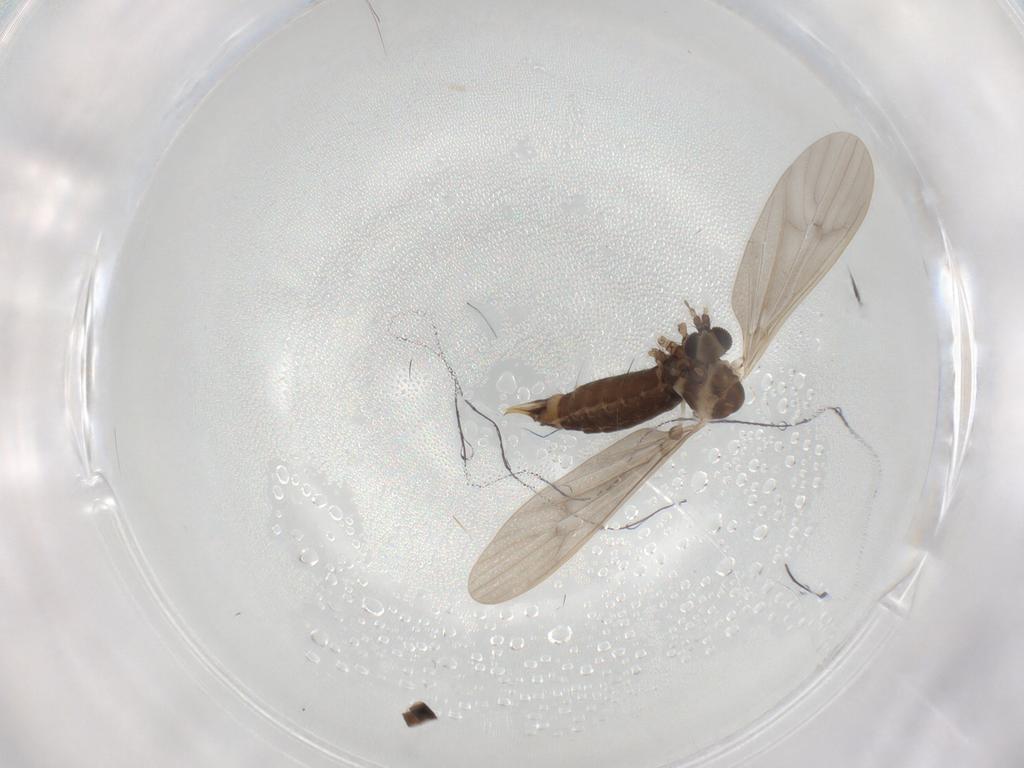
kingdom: Animalia
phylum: Arthropoda
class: Insecta
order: Diptera
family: Limoniidae
